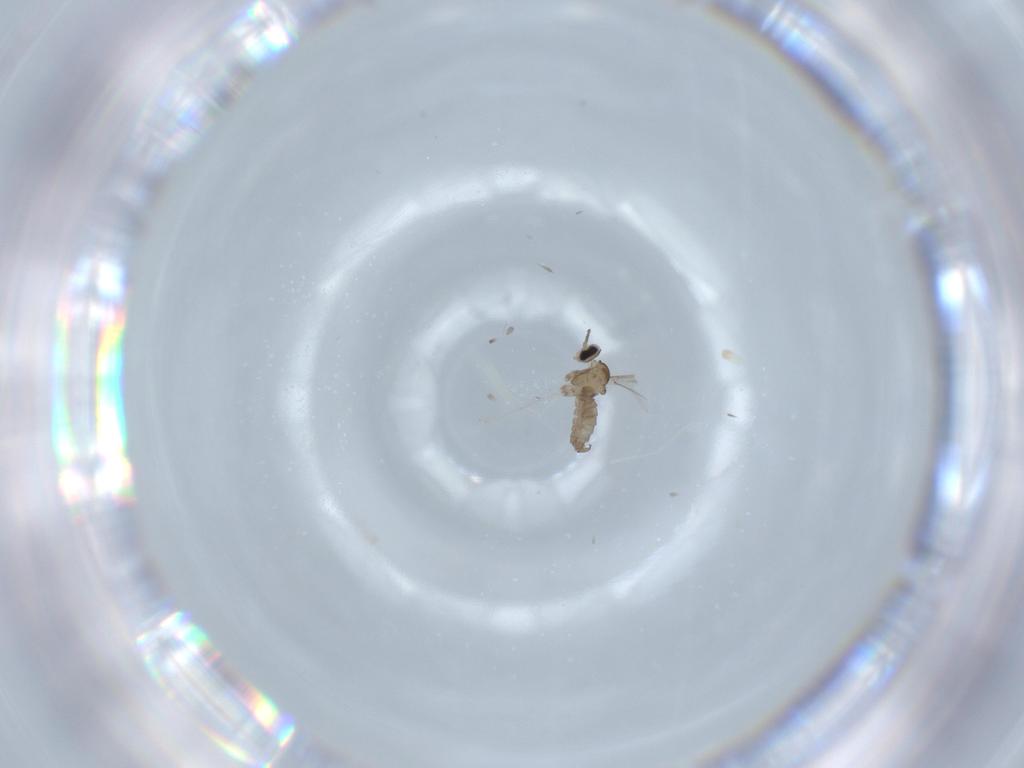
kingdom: Animalia
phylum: Arthropoda
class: Insecta
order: Diptera
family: Cecidomyiidae
